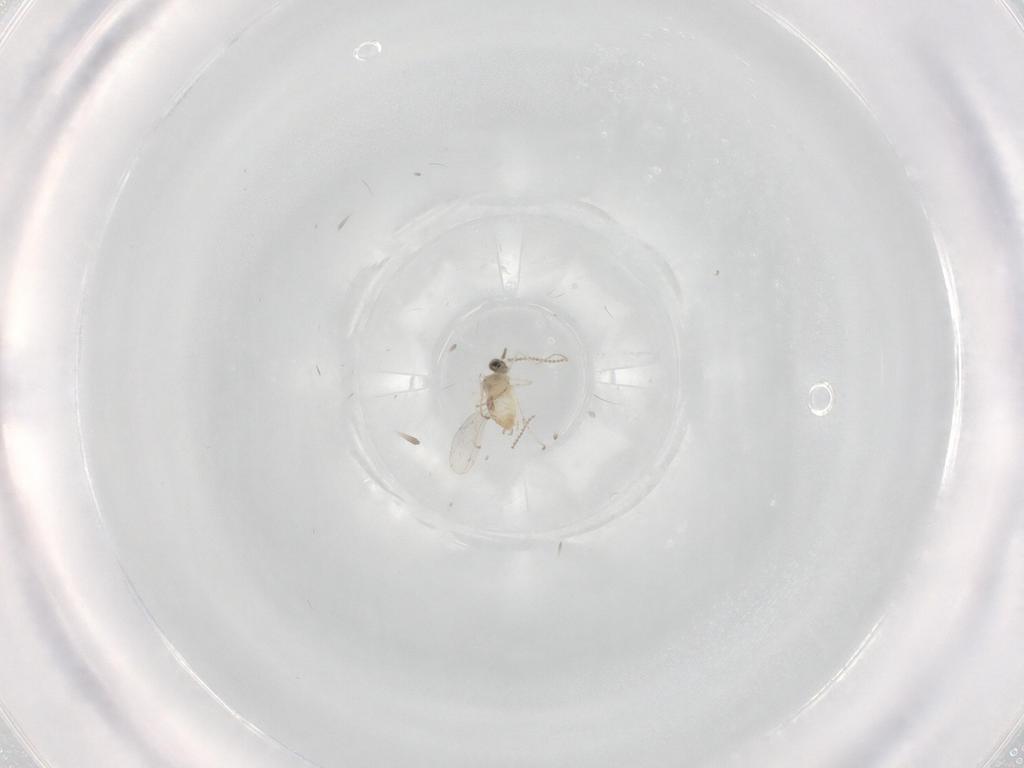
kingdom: Animalia
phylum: Arthropoda
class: Insecta
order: Diptera
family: Cecidomyiidae
